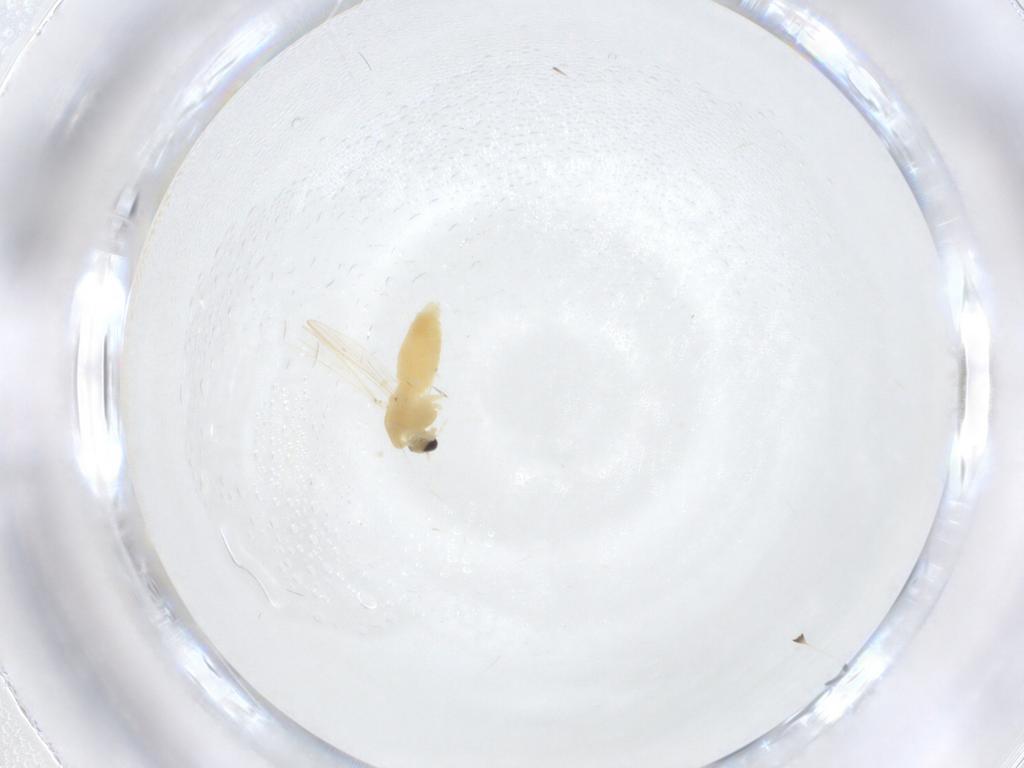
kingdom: Animalia
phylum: Arthropoda
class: Insecta
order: Diptera
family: Chironomidae
